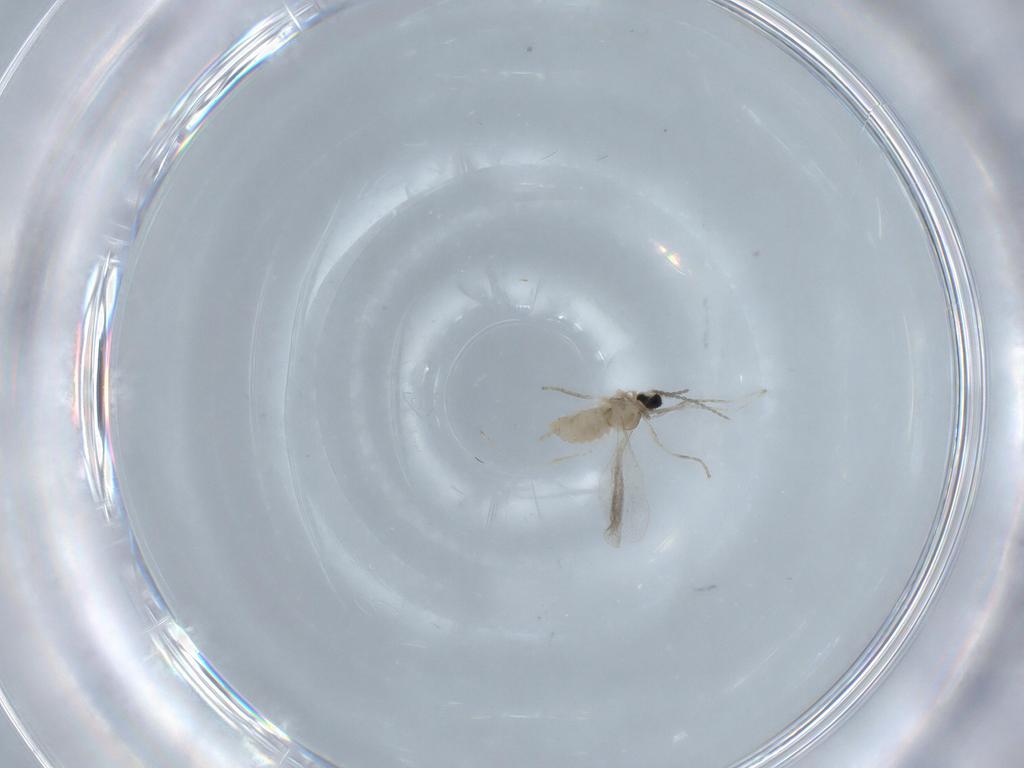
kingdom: Animalia
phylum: Arthropoda
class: Insecta
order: Diptera
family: Cecidomyiidae
